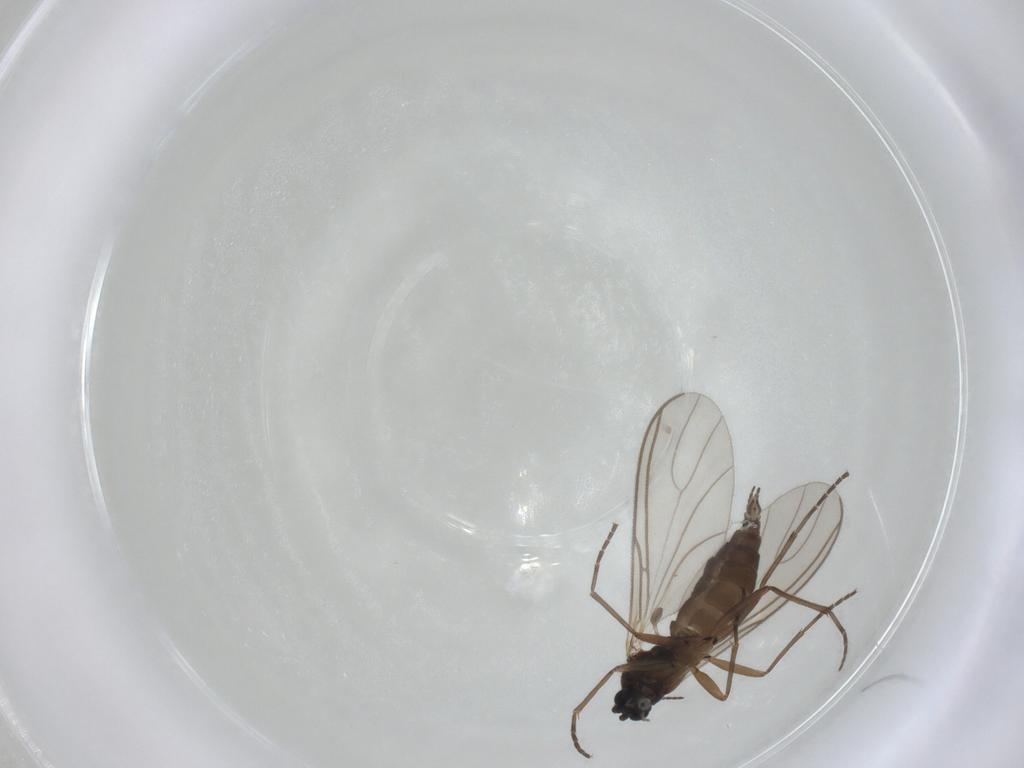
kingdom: Animalia
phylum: Arthropoda
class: Insecta
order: Diptera
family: Sciaridae
